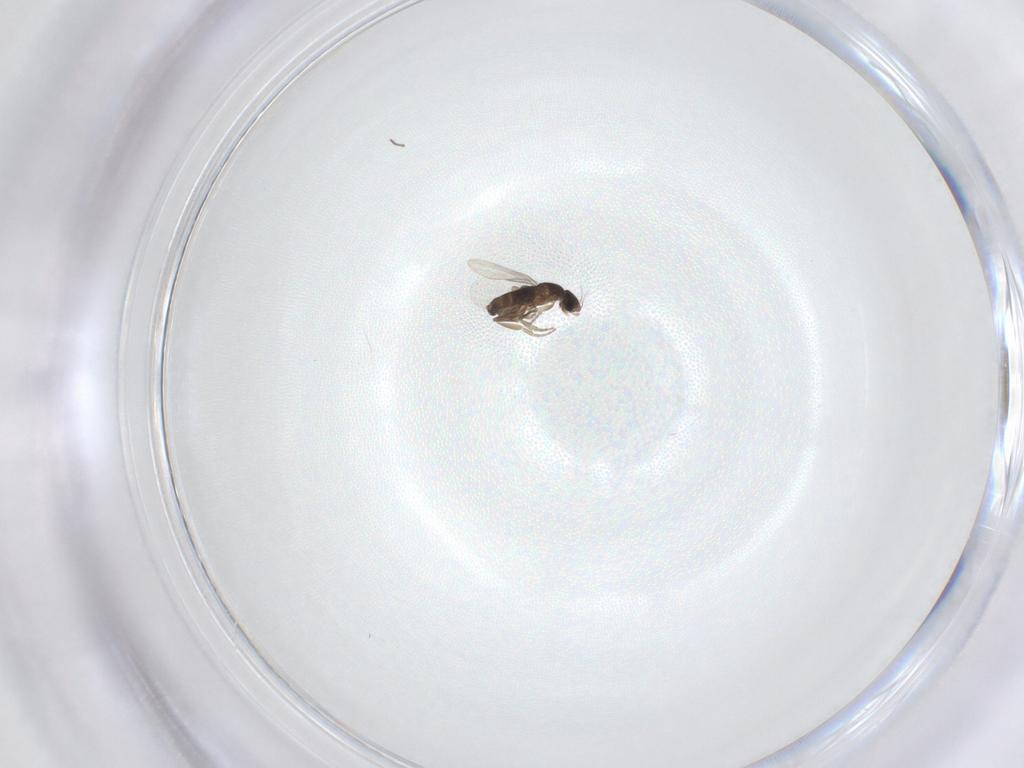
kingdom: Animalia
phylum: Arthropoda
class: Insecta
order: Diptera
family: Phoridae
